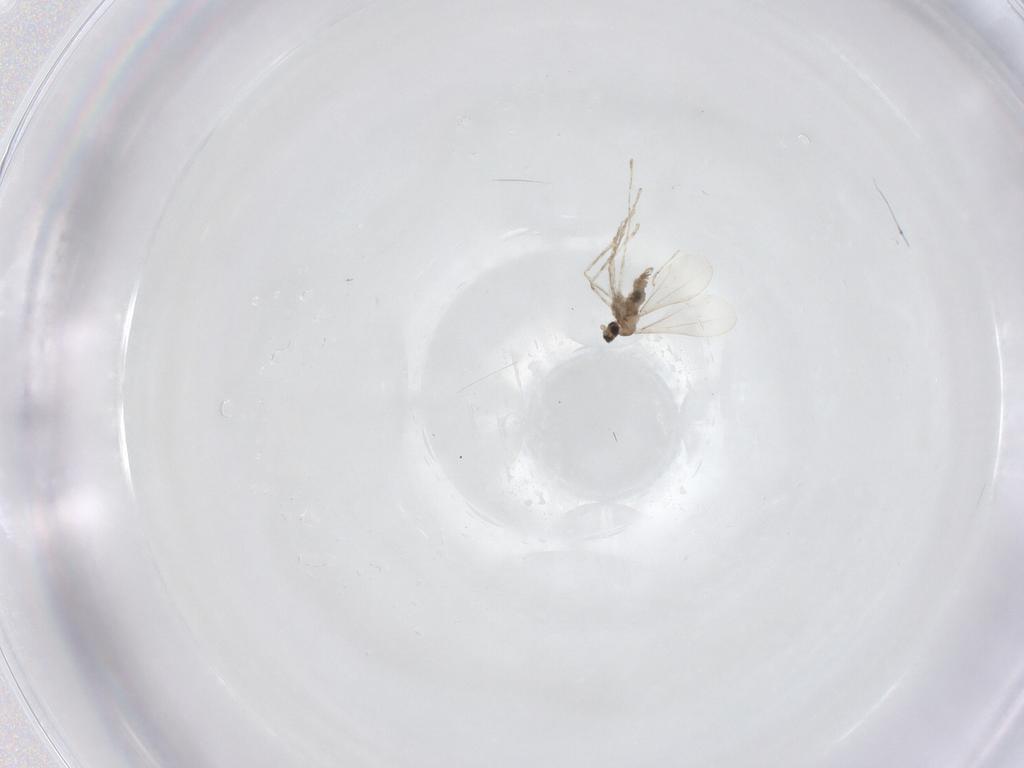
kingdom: Animalia
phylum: Arthropoda
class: Insecta
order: Diptera
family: Cecidomyiidae
